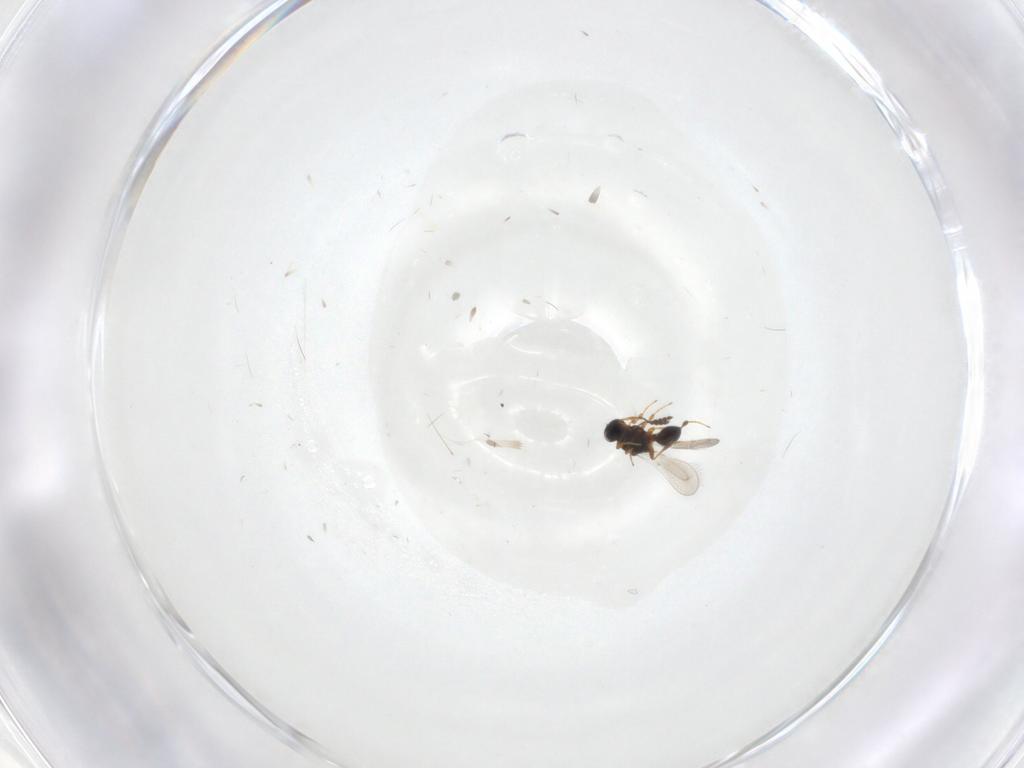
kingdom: Animalia
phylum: Arthropoda
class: Insecta
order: Hymenoptera
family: Platygastridae
